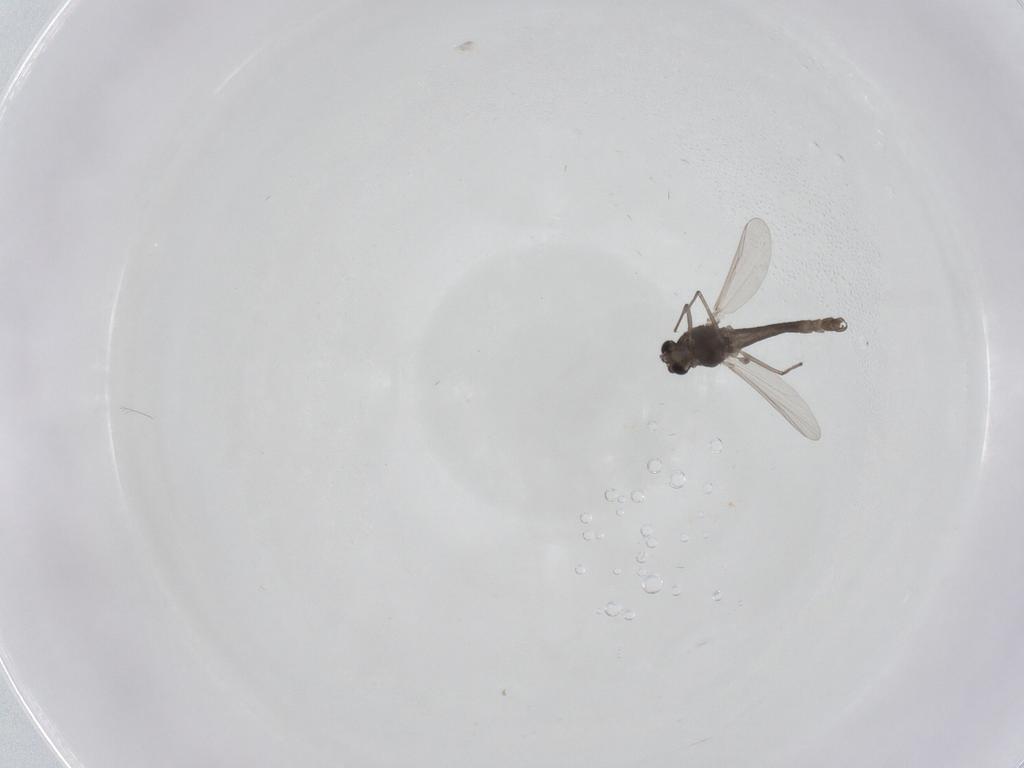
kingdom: Animalia
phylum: Arthropoda
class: Insecta
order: Diptera
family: Chironomidae
